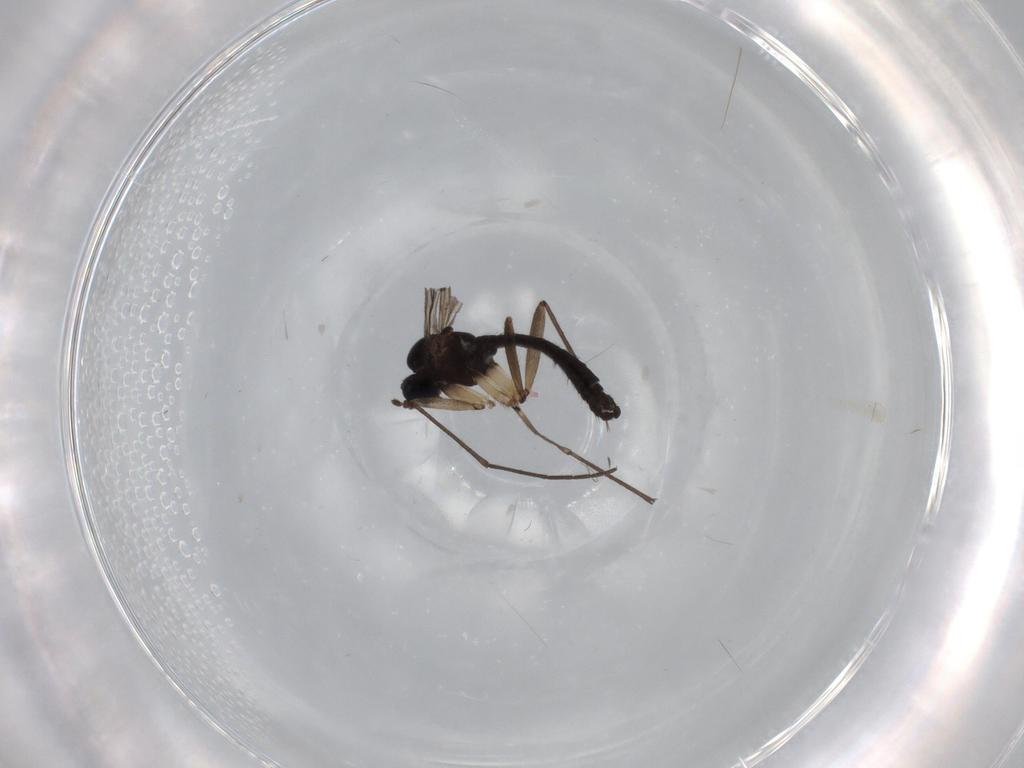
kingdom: Animalia
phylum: Arthropoda
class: Insecta
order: Diptera
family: Sciaridae
